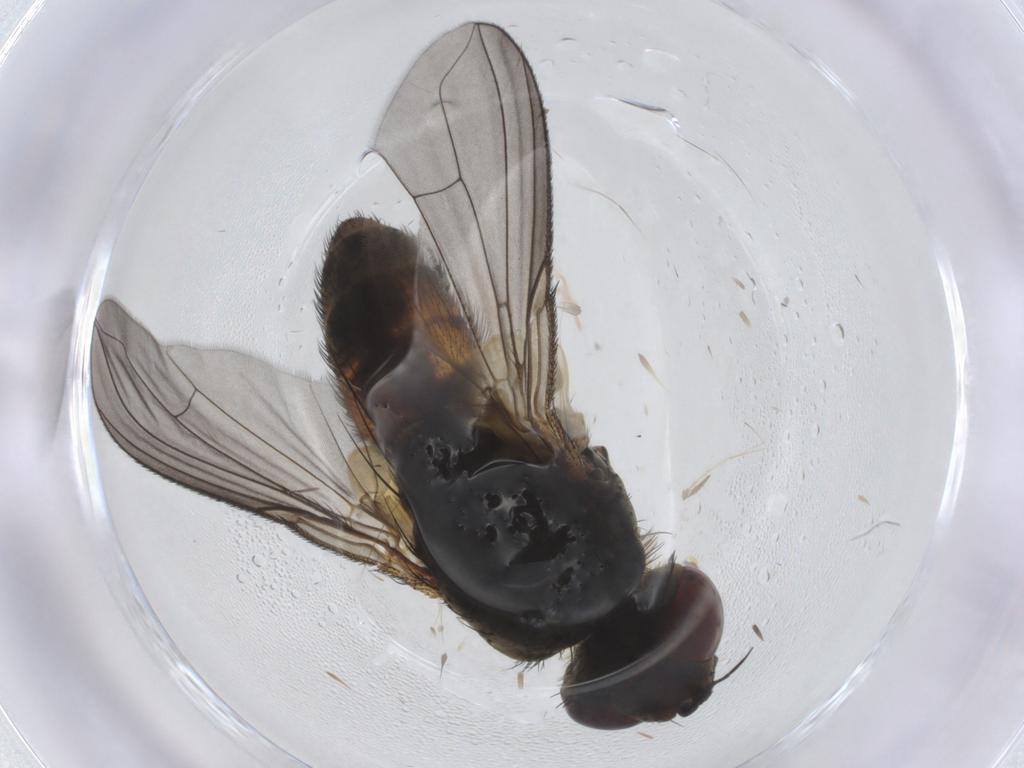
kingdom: Animalia
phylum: Arthropoda
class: Insecta
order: Diptera
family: Tachinidae
